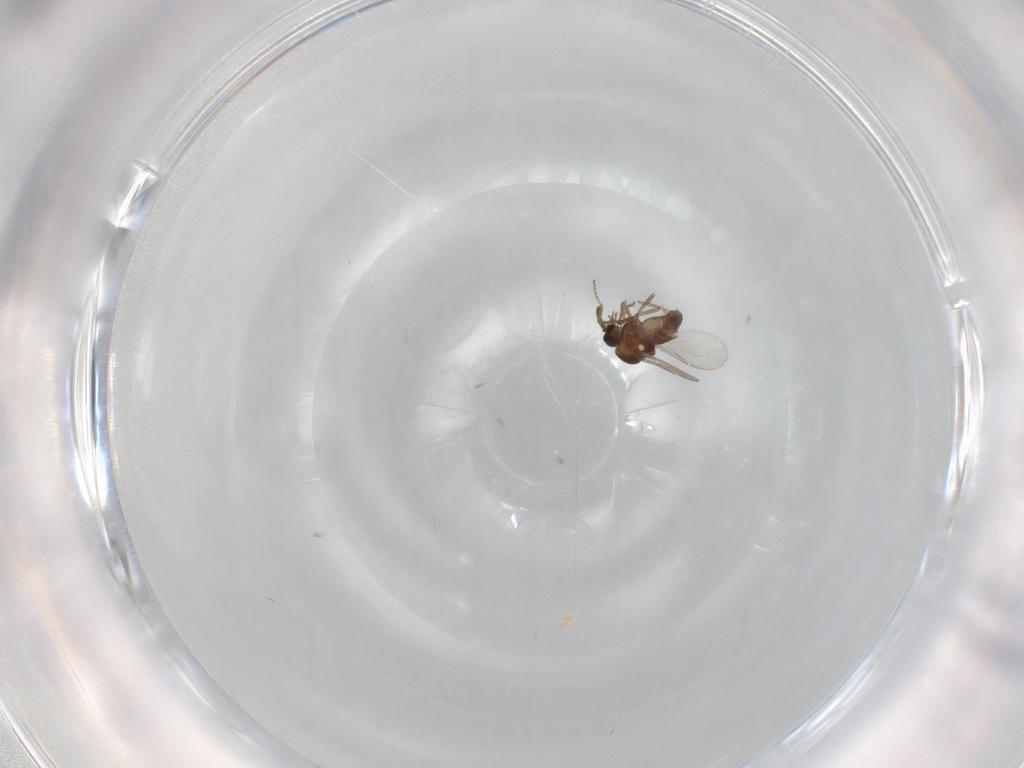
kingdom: Animalia
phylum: Arthropoda
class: Insecta
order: Diptera
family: Ceratopogonidae
